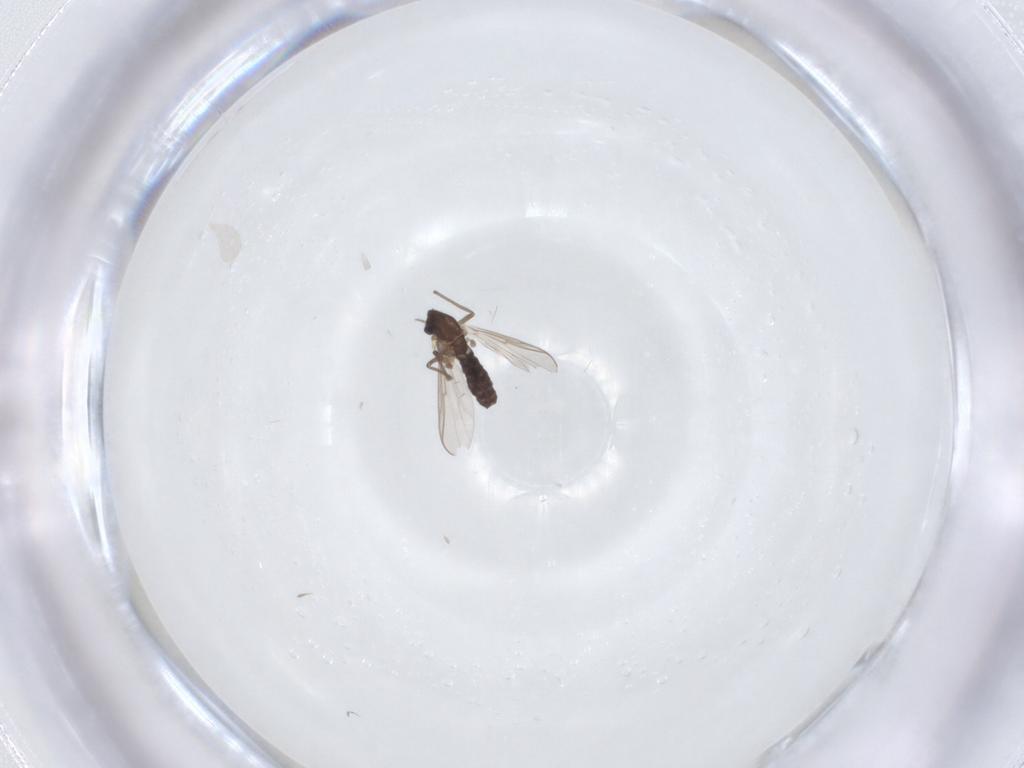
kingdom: Animalia
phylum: Arthropoda
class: Insecta
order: Diptera
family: Chironomidae
